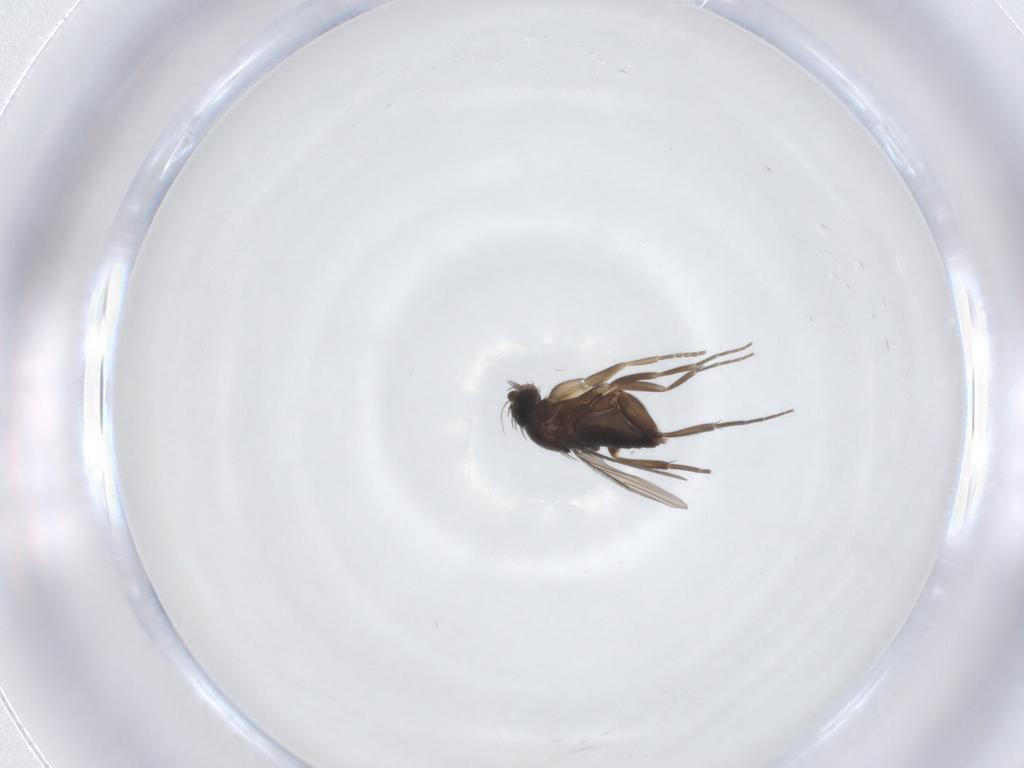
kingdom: Animalia
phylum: Arthropoda
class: Insecta
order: Diptera
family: Phoridae
